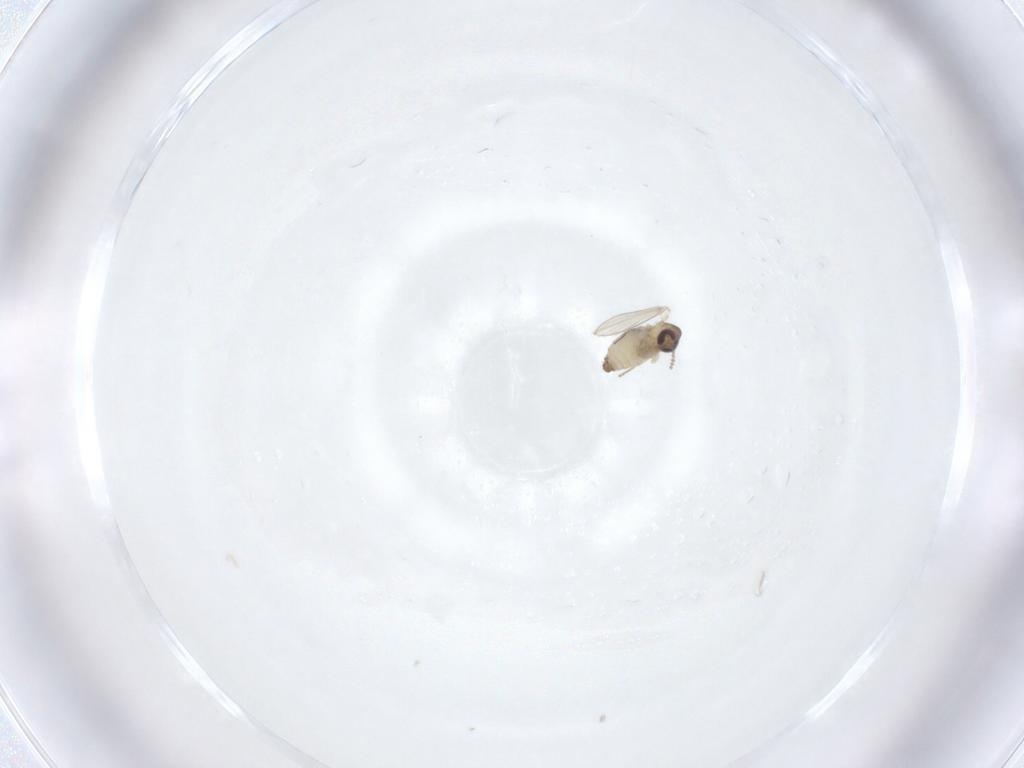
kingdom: Animalia
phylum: Arthropoda
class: Insecta
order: Diptera
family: Psychodidae
